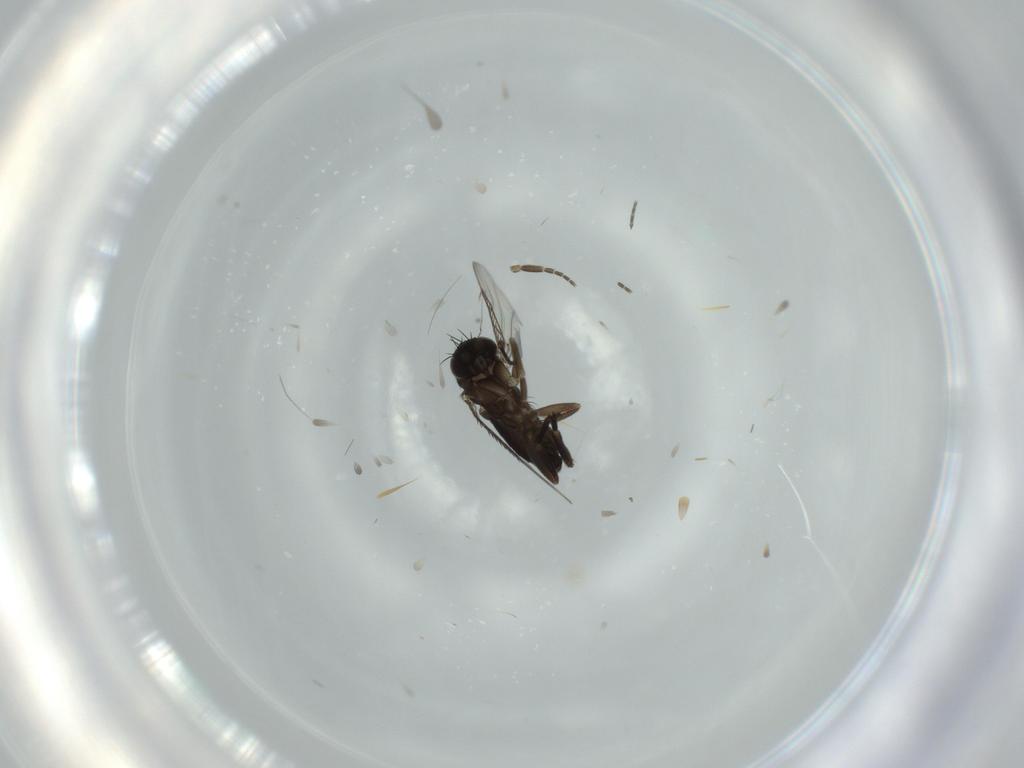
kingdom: Animalia
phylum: Arthropoda
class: Insecta
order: Diptera
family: Phoridae
